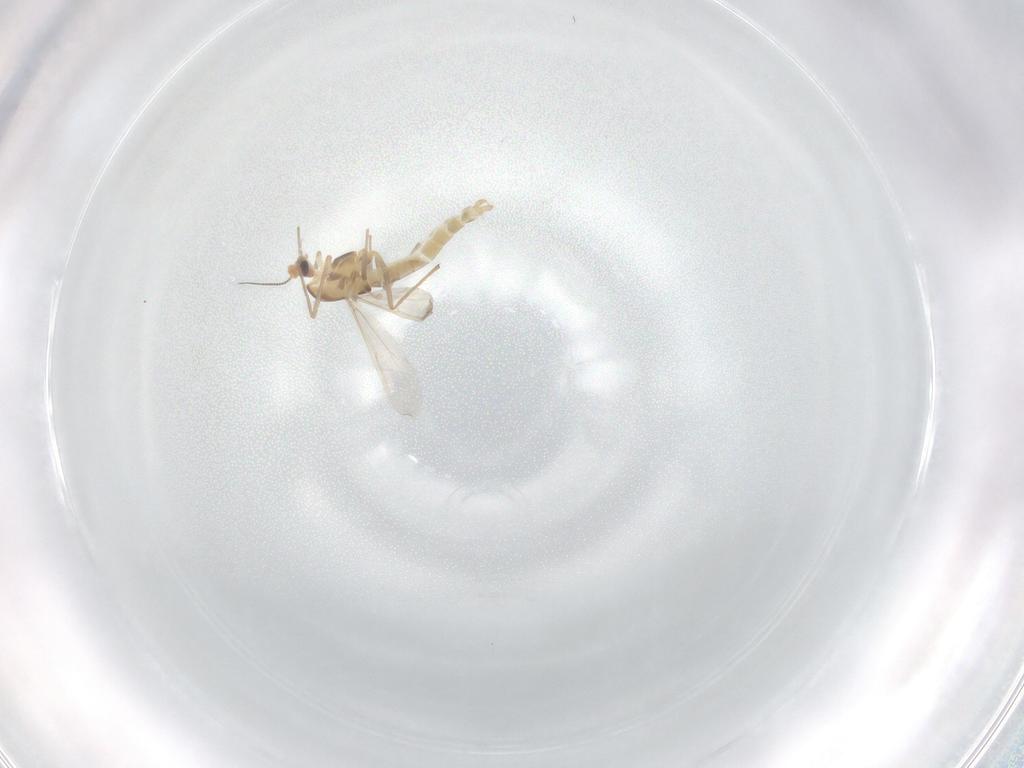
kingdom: Animalia
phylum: Arthropoda
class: Insecta
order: Diptera
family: Chironomidae
